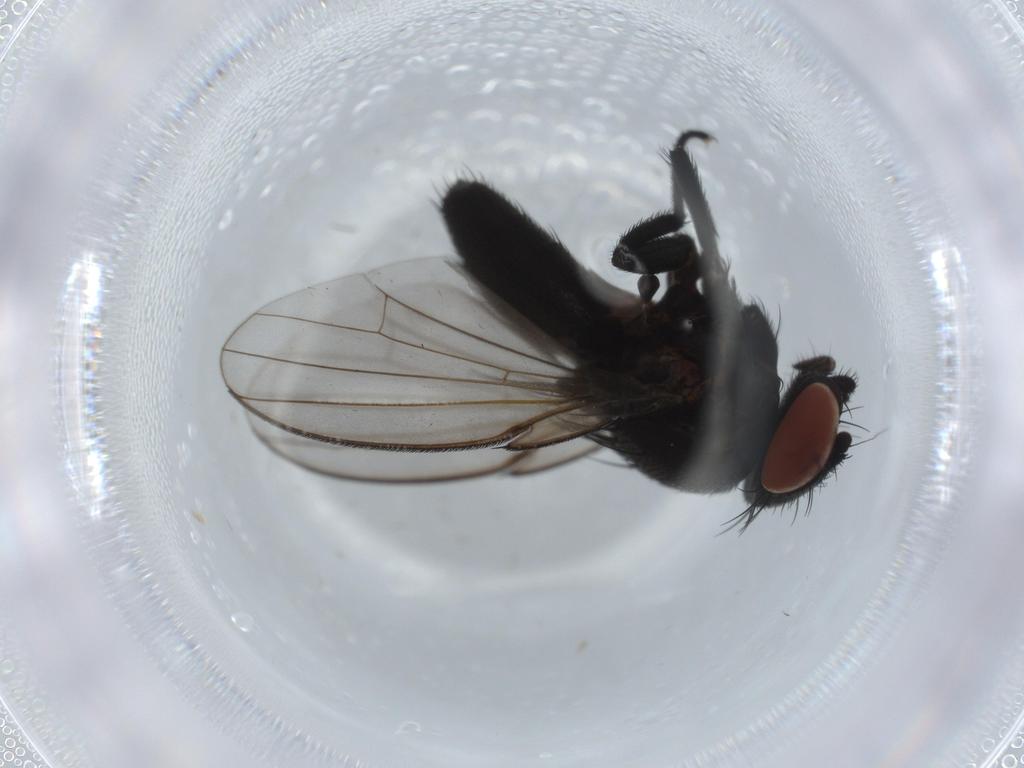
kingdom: Animalia
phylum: Arthropoda
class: Insecta
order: Diptera
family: Milichiidae
